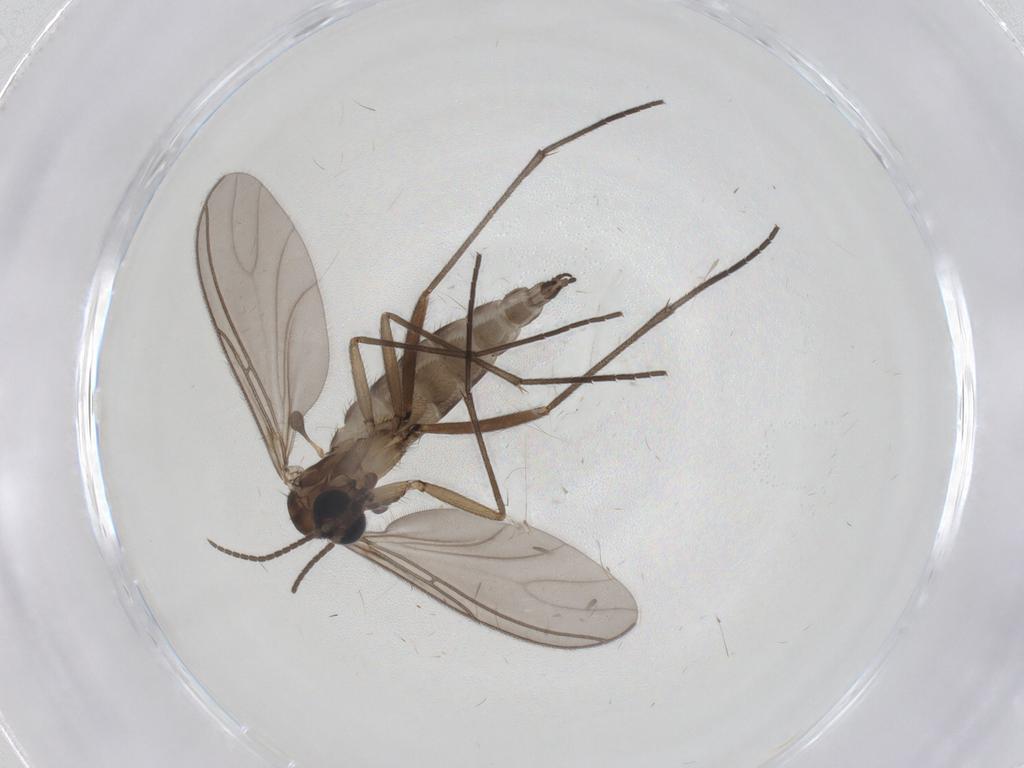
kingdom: Animalia
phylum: Arthropoda
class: Insecta
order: Diptera
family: Sciaridae
